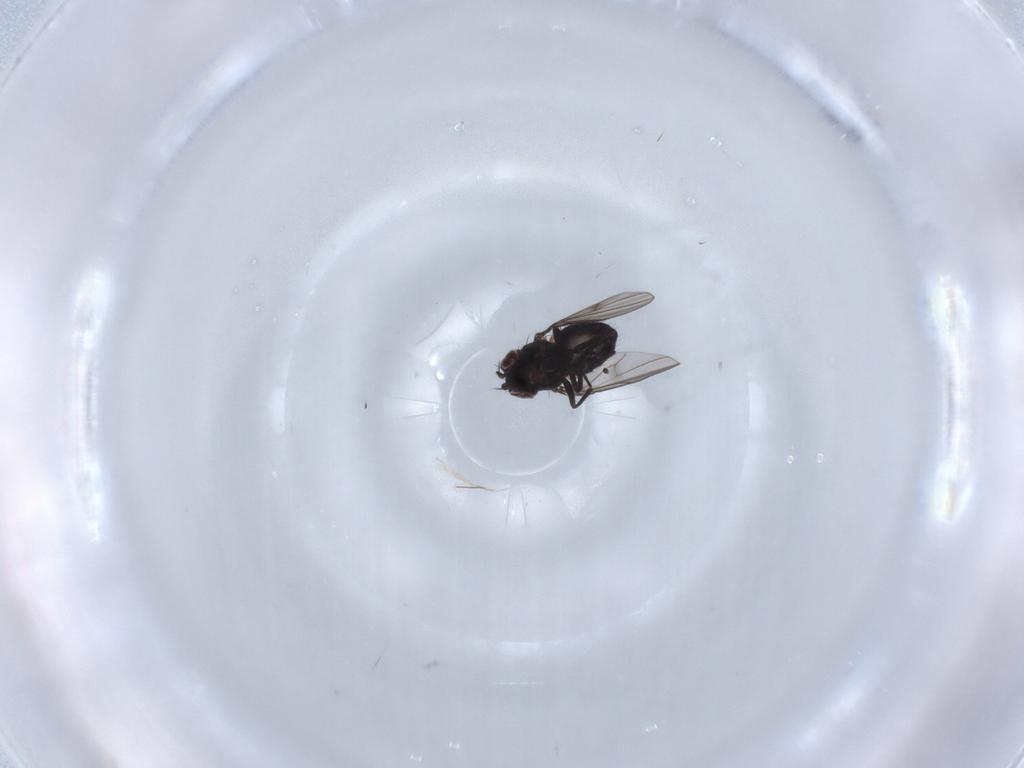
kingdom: Animalia
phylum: Arthropoda
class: Insecta
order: Diptera
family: Ephydridae
